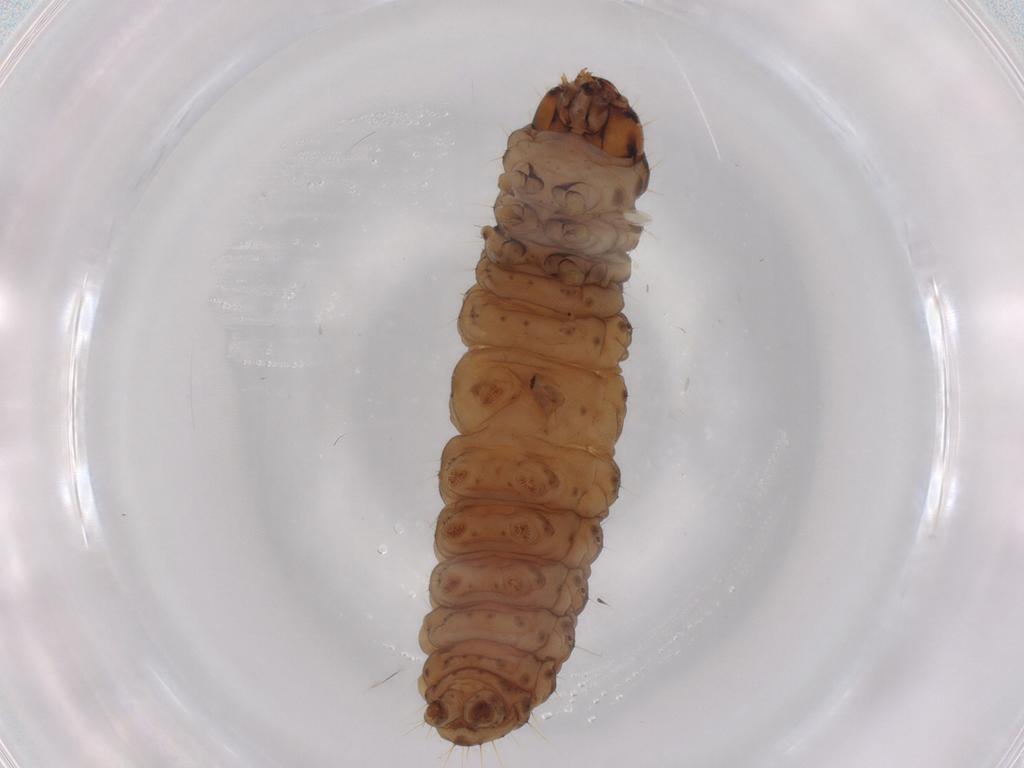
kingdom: Animalia
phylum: Arthropoda
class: Insecta
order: Lepidoptera
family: Tortricidae
